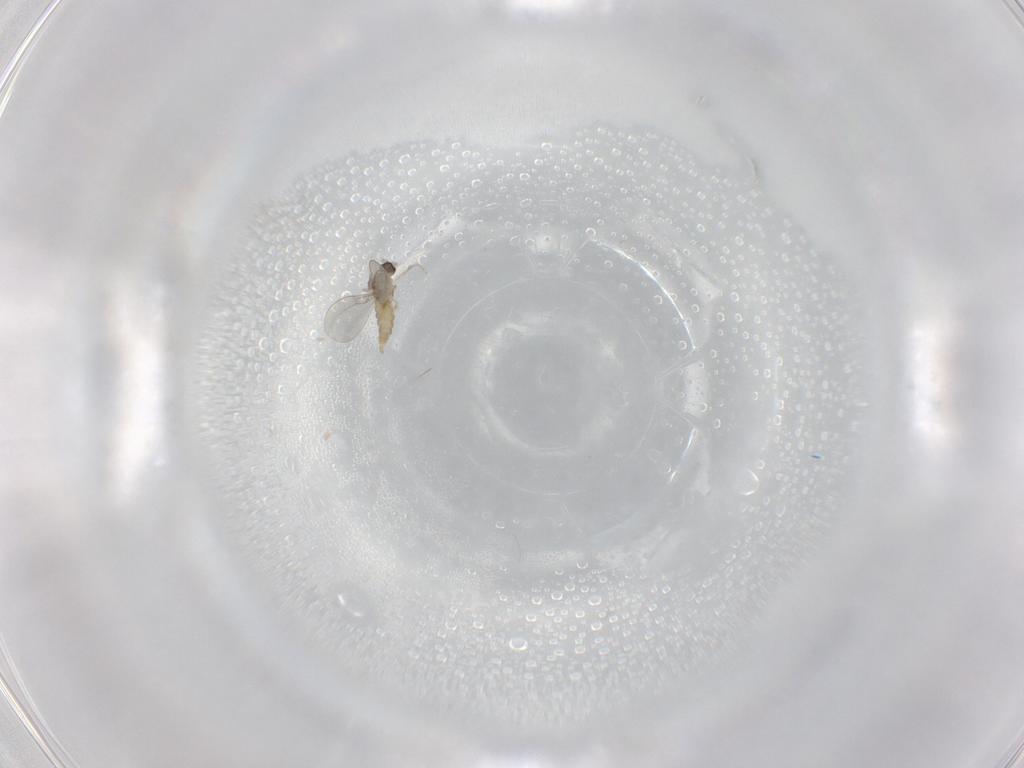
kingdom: Animalia
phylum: Arthropoda
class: Insecta
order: Diptera
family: Cecidomyiidae
